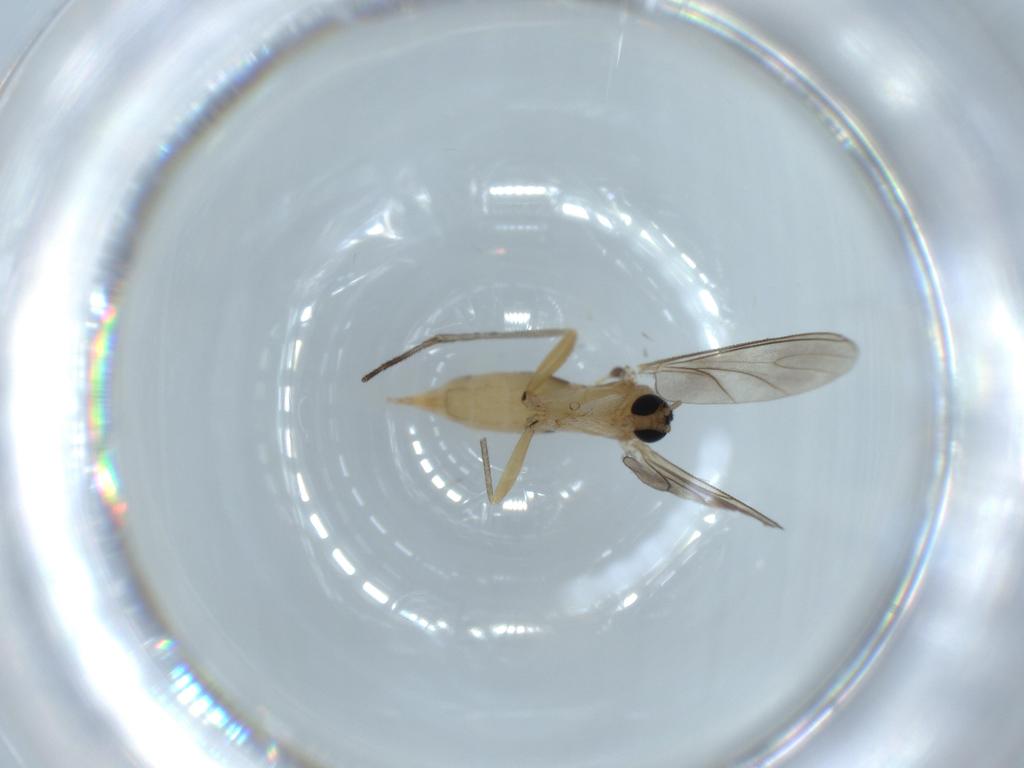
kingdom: Animalia
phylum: Arthropoda
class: Insecta
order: Diptera
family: Sciaridae
